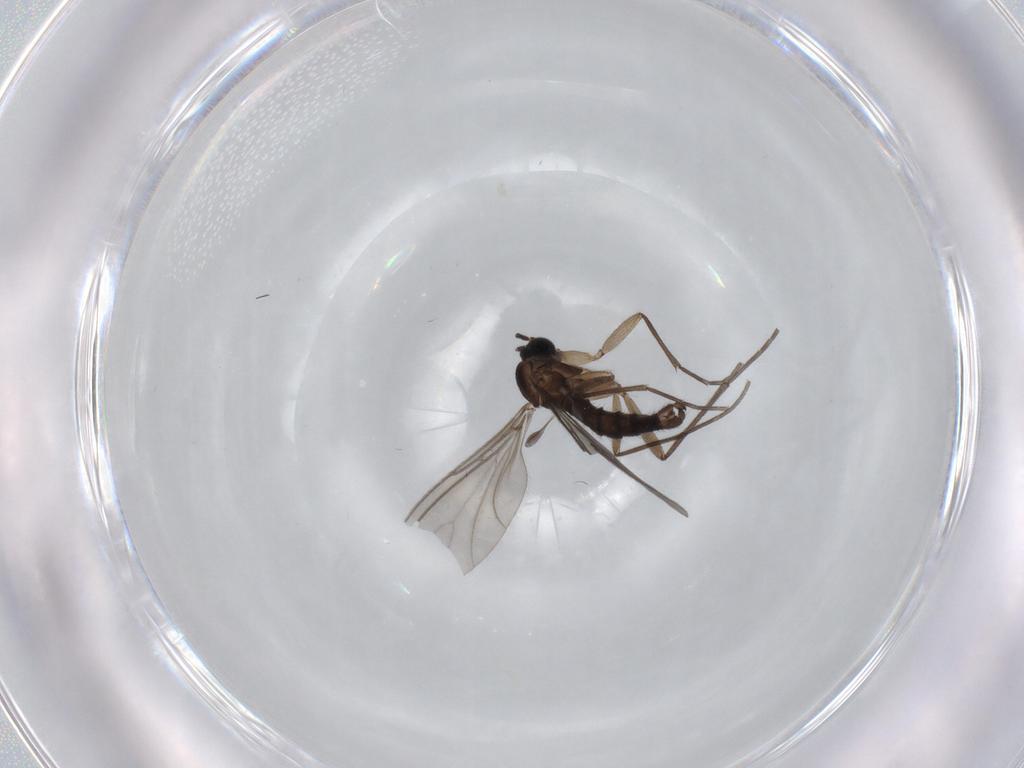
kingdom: Animalia
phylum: Arthropoda
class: Insecta
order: Diptera
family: Sciaridae
